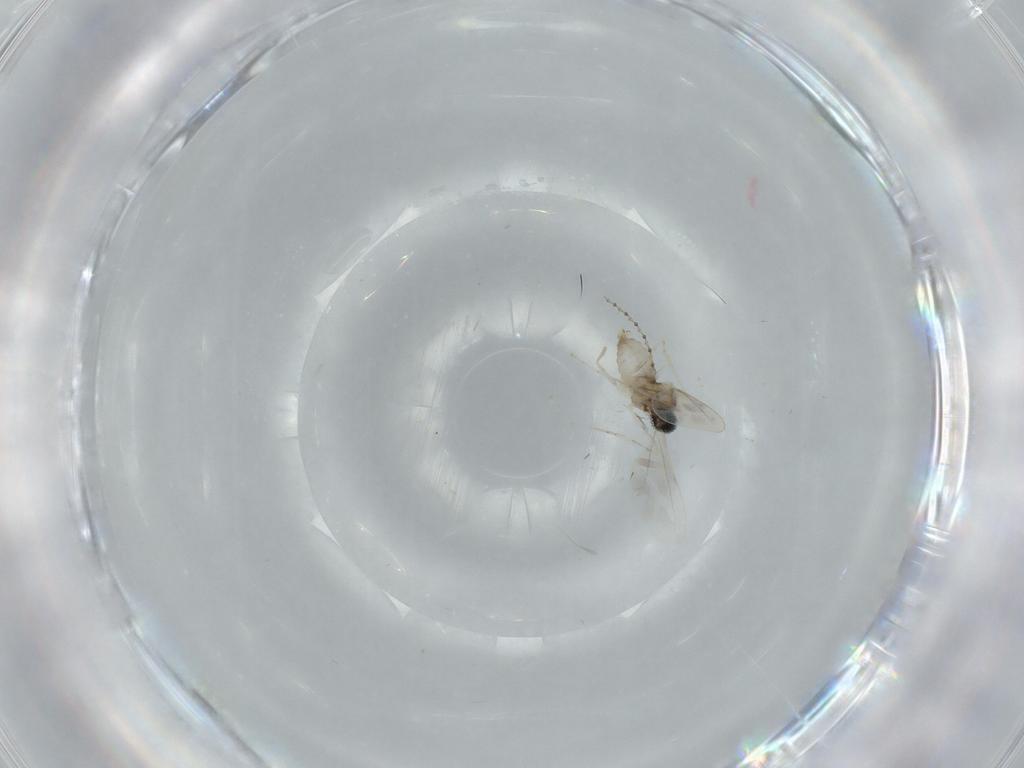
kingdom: Animalia
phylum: Arthropoda
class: Insecta
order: Diptera
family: Cecidomyiidae
